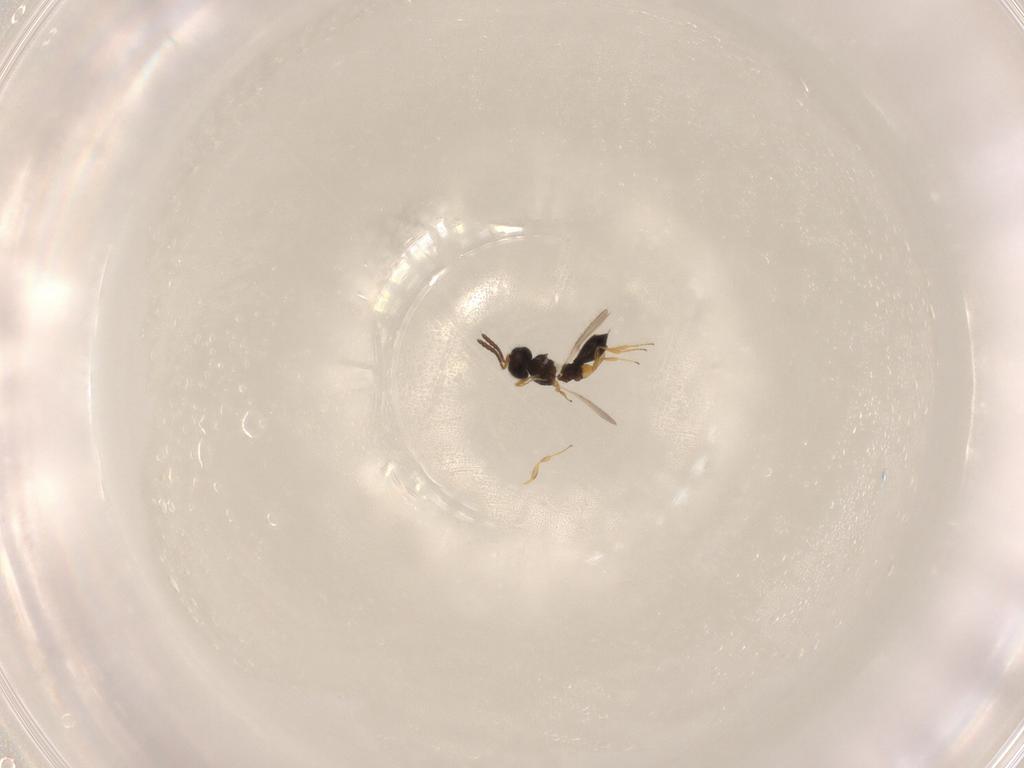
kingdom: Animalia
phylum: Arthropoda
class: Insecta
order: Hymenoptera
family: Scelionidae
